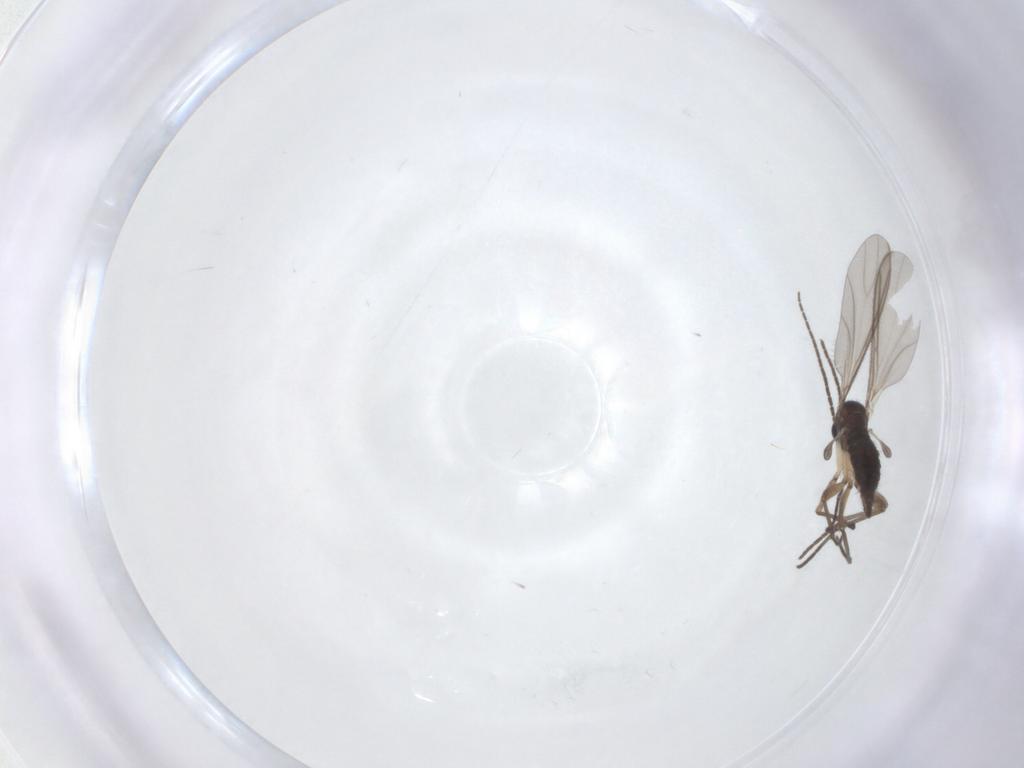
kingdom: Animalia
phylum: Arthropoda
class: Insecta
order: Diptera
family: Sciaridae
